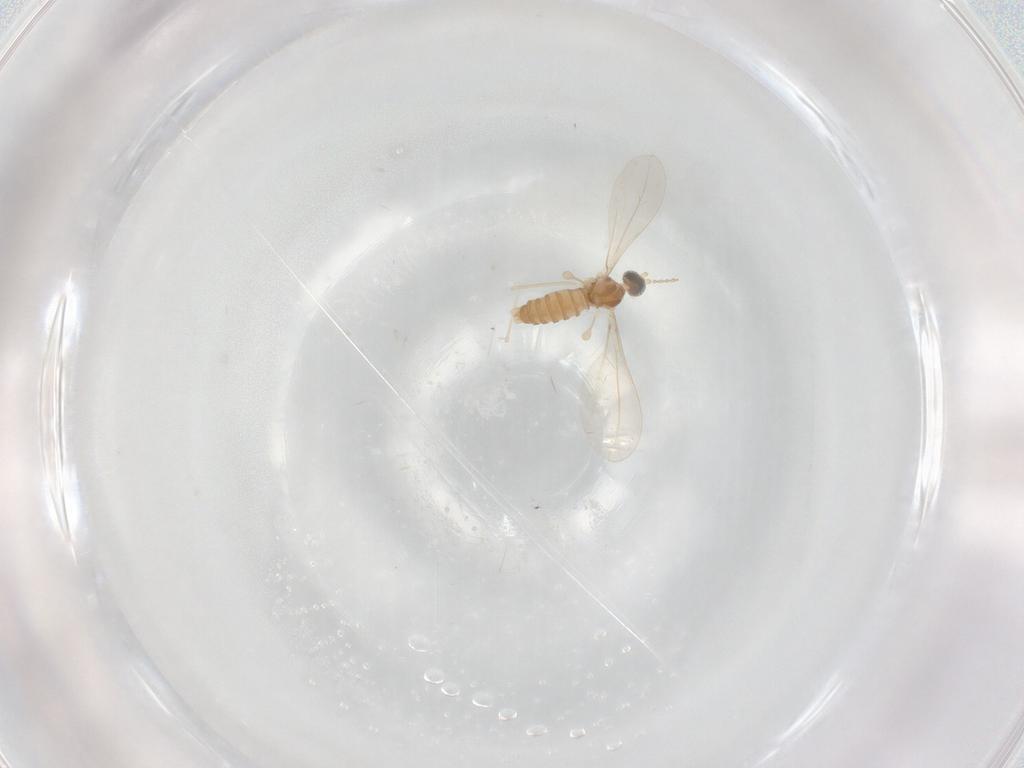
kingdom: Animalia
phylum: Arthropoda
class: Insecta
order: Diptera
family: Cecidomyiidae
